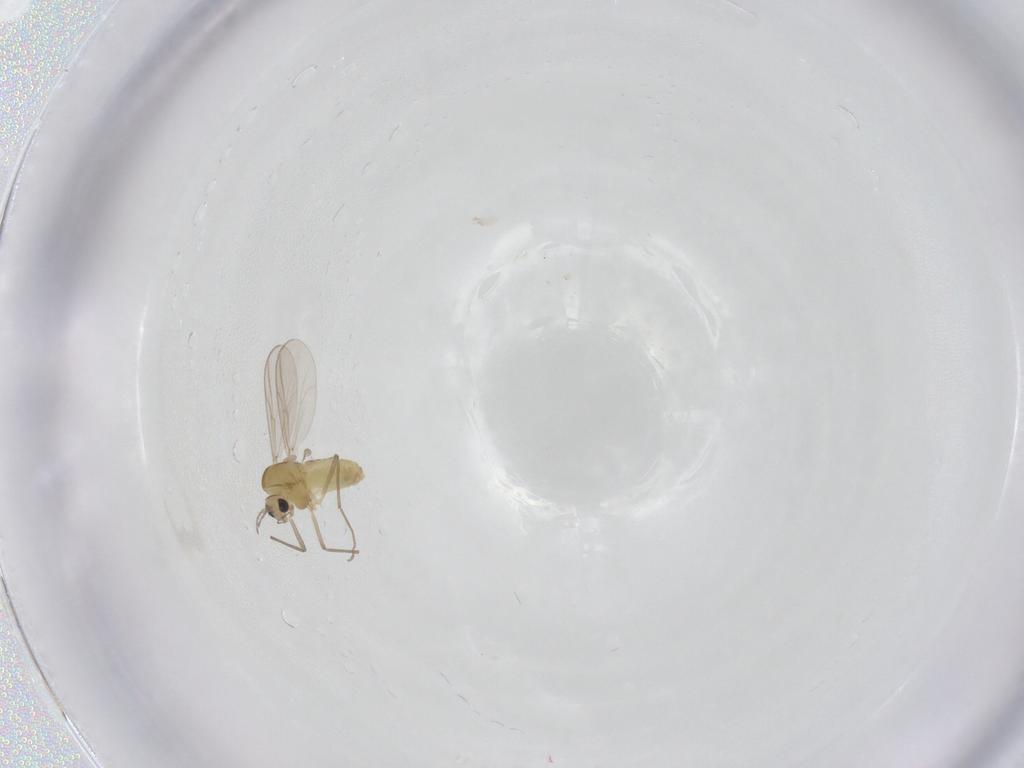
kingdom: Animalia
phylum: Arthropoda
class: Insecta
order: Diptera
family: Chironomidae
